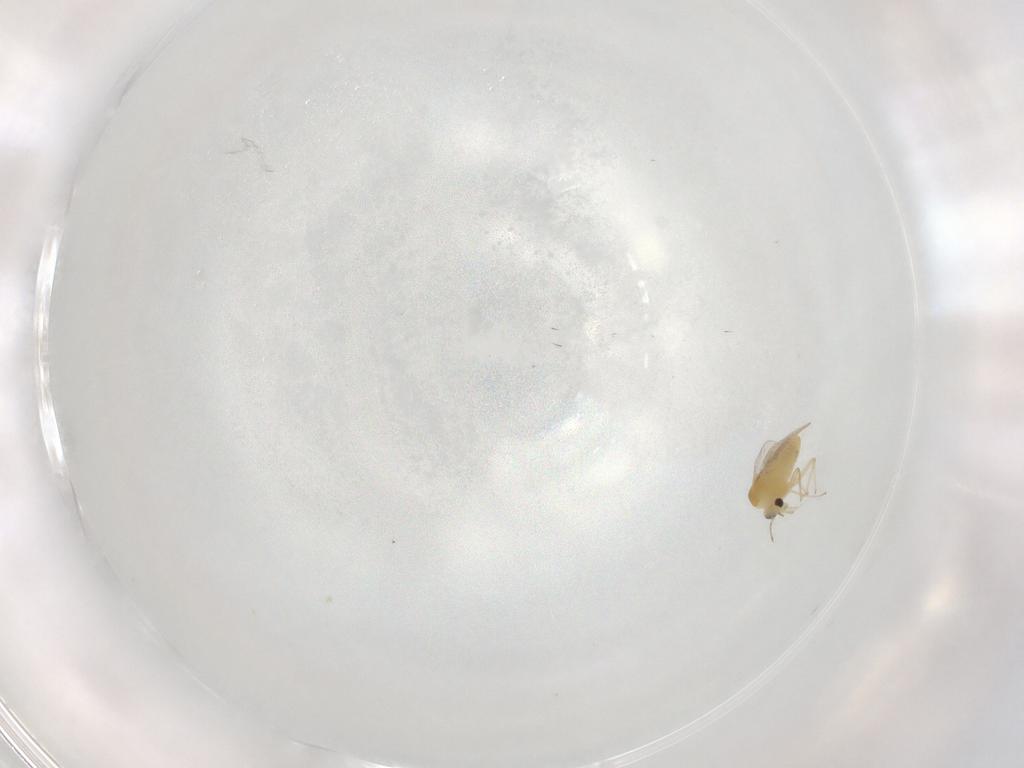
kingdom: Animalia
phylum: Arthropoda
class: Insecta
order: Diptera
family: Chironomidae
